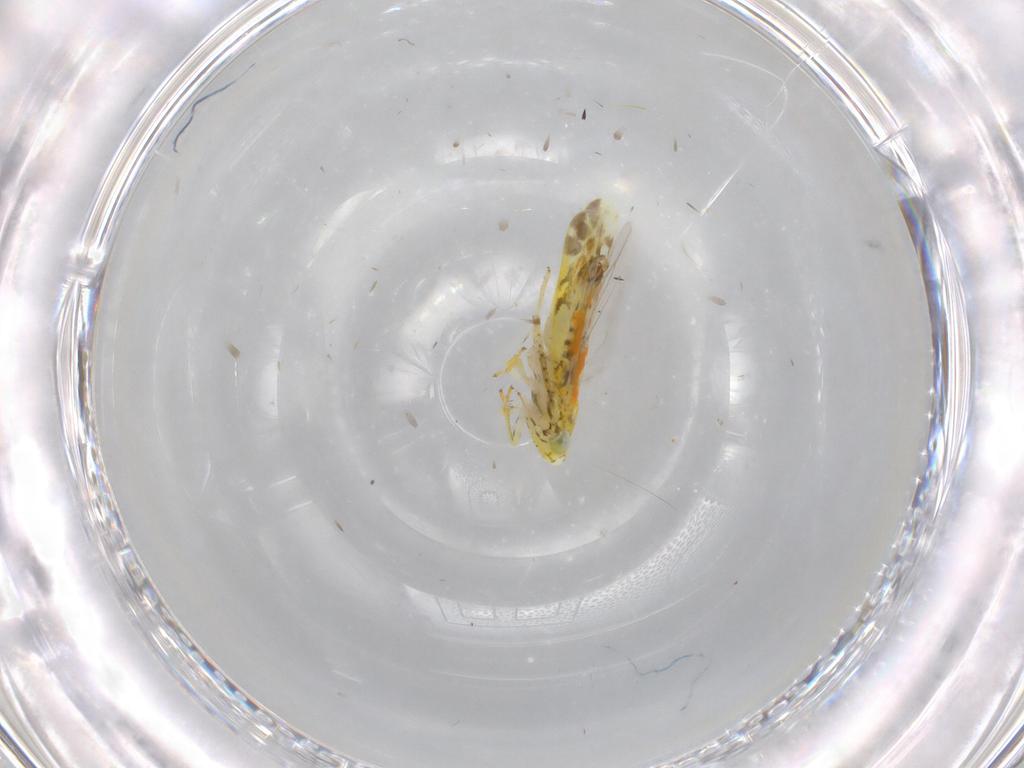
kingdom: Animalia
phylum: Arthropoda
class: Insecta
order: Hemiptera
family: Cicadellidae
